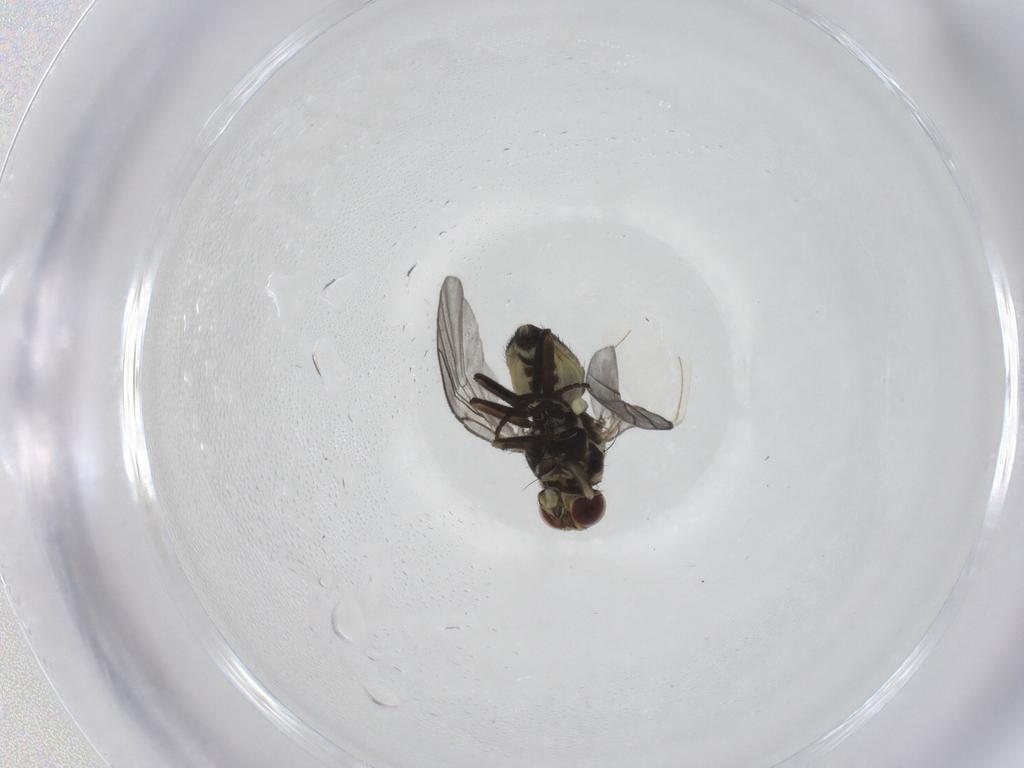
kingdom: Animalia
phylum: Arthropoda
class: Insecta
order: Diptera
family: Agromyzidae
